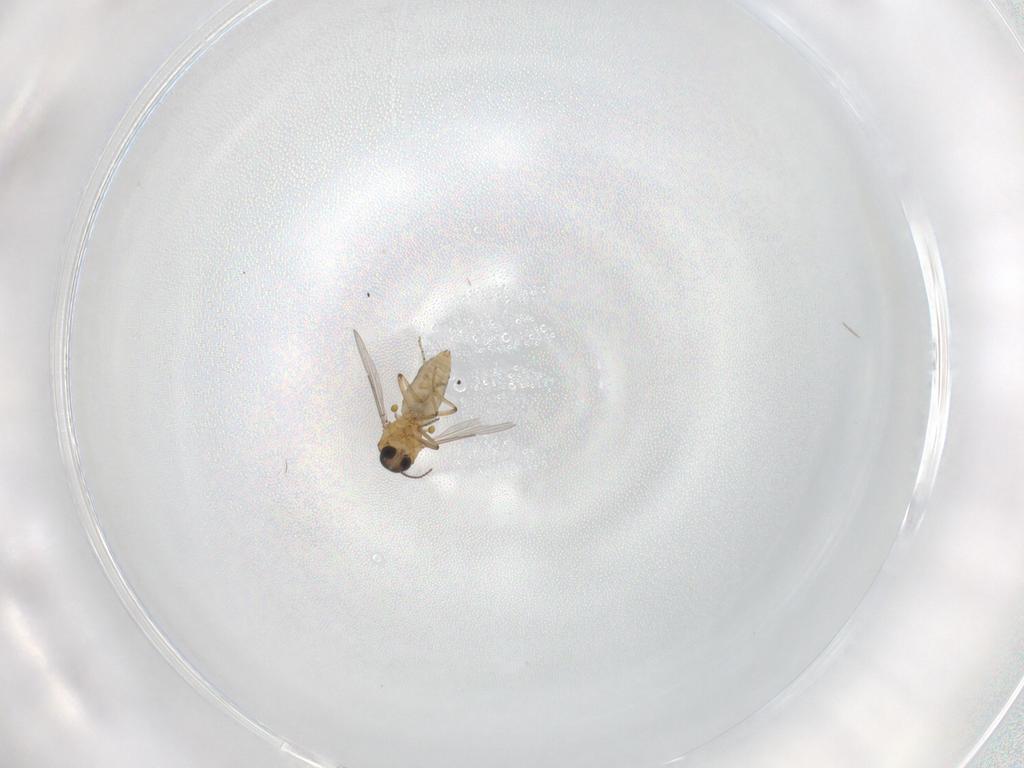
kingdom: Animalia
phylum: Arthropoda
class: Insecta
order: Diptera
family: Ceratopogonidae
